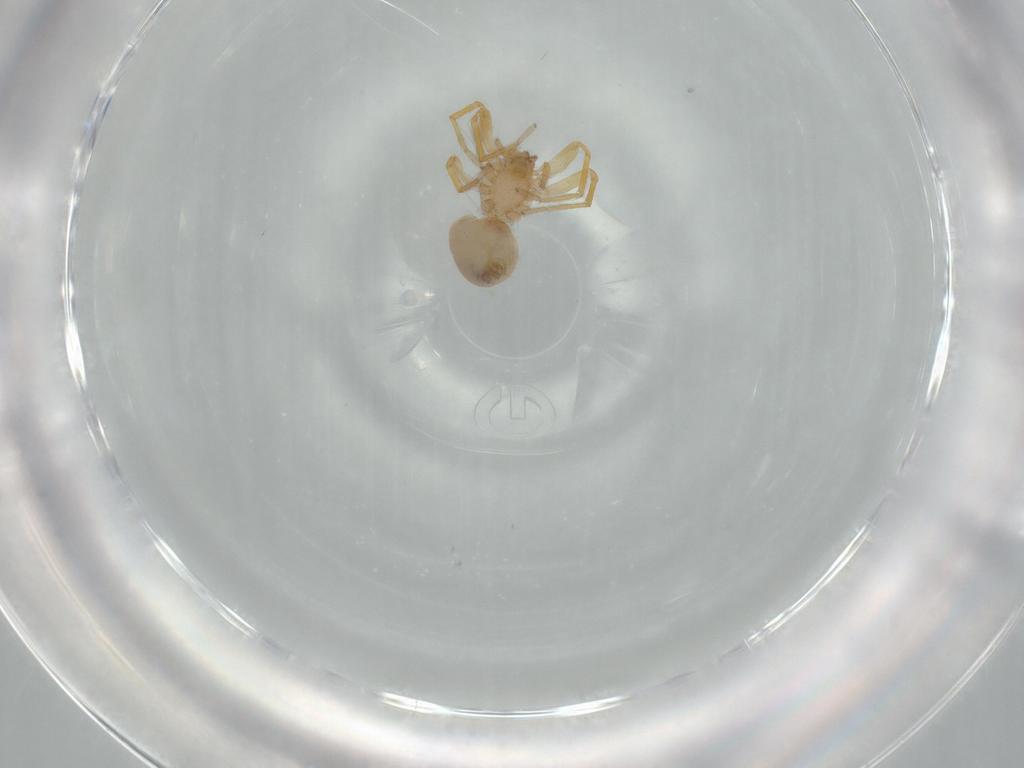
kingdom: Animalia
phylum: Arthropoda
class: Arachnida
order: Araneae
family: Oonopidae
